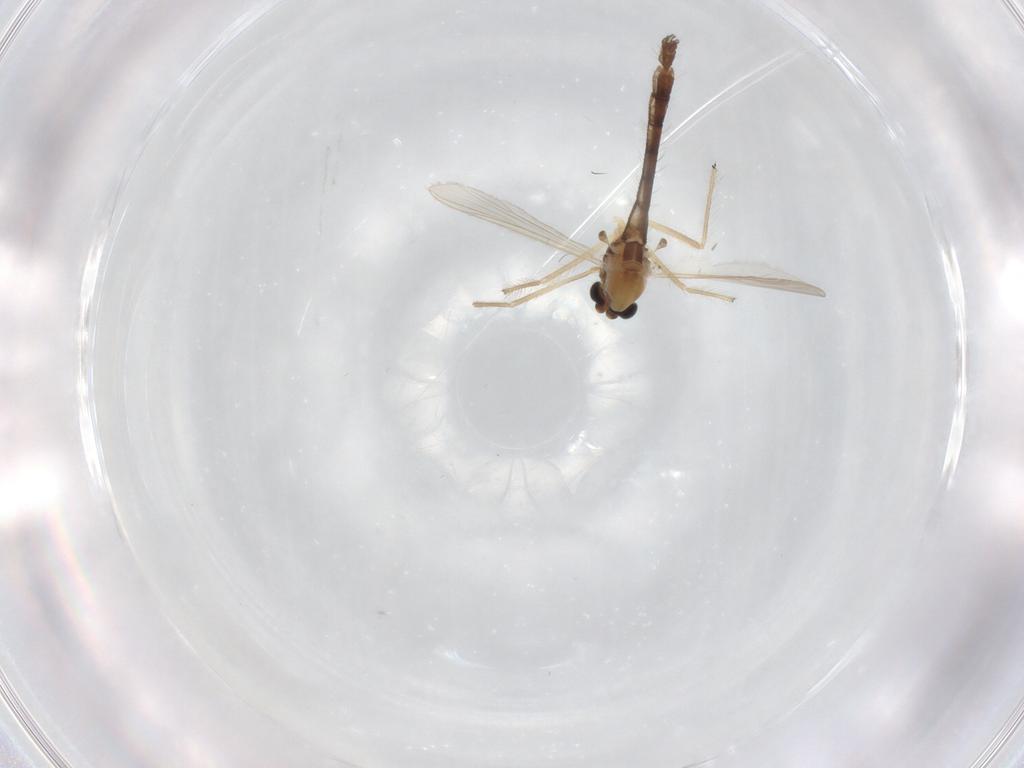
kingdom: Animalia
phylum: Arthropoda
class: Insecta
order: Diptera
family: Chironomidae
